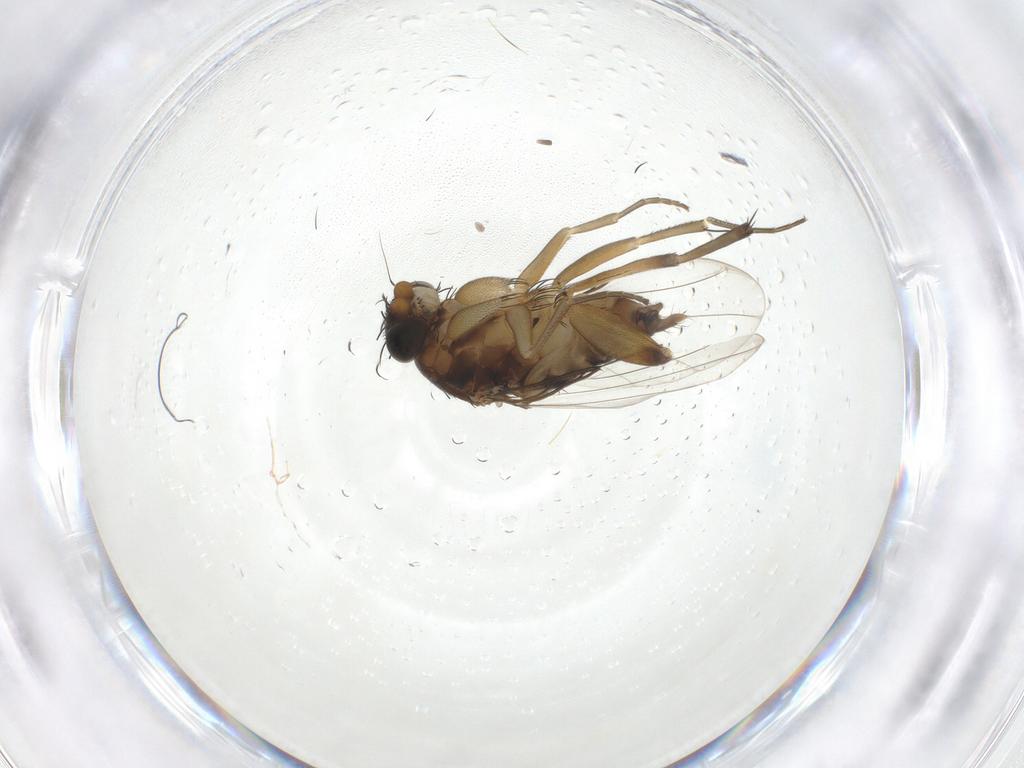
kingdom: Animalia
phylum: Arthropoda
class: Insecta
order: Diptera
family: Phoridae
